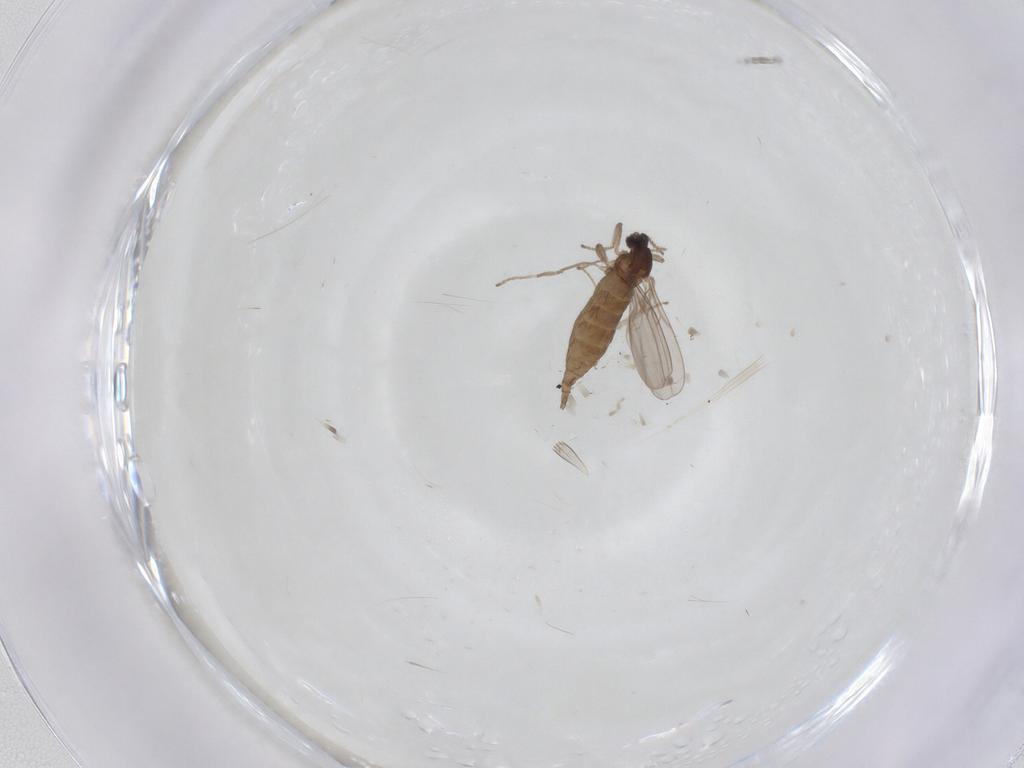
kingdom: Animalia
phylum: Arthropoda
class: Insecta
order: Diptera
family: Cecidomyiidae
